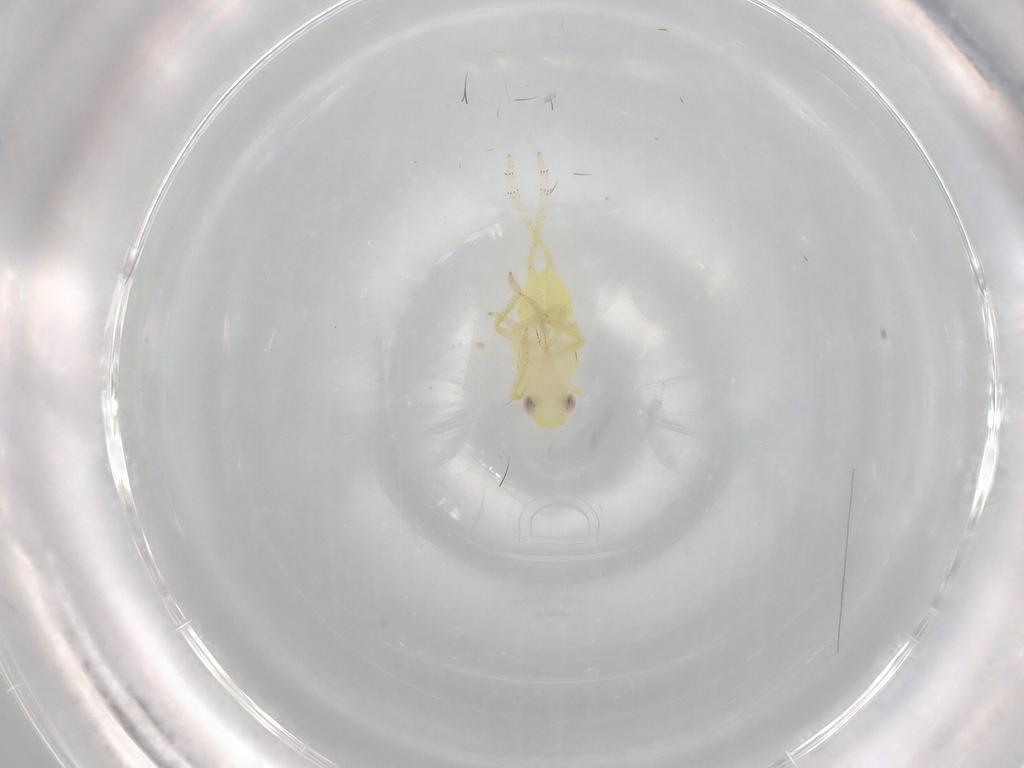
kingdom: Animalia
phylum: Arthropoda
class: Insecta
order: Hemiptera
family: Tropiduchidae
